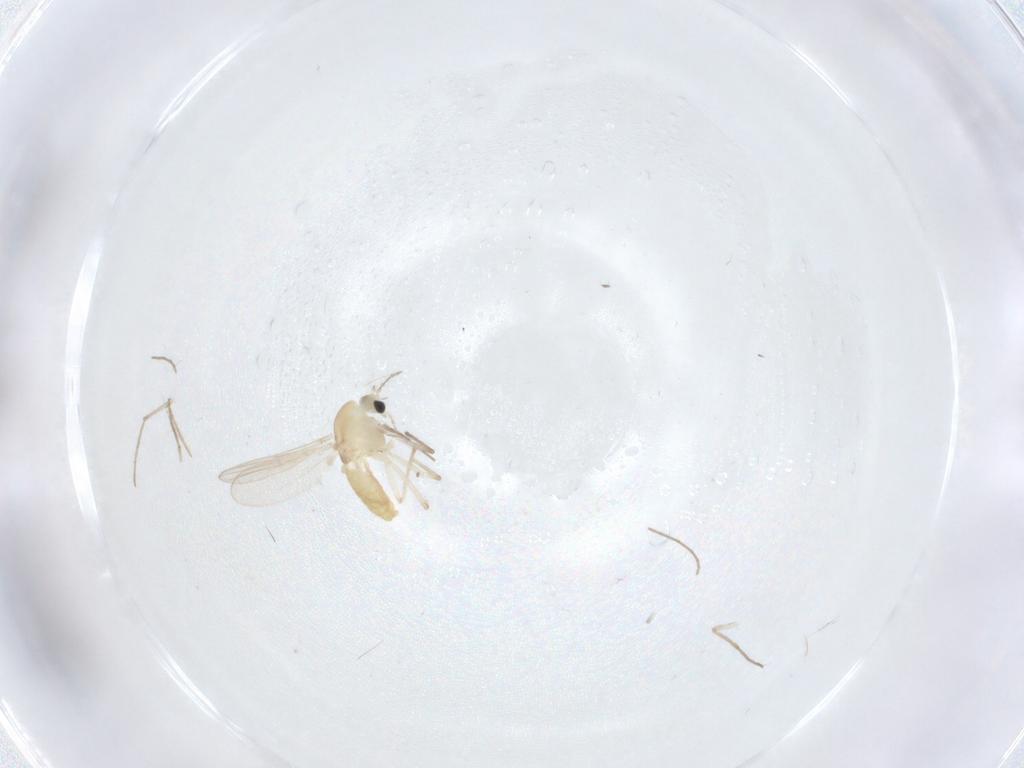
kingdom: Animalia
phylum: Arthropoda
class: Insecta
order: Diptera
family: Chironomidae
